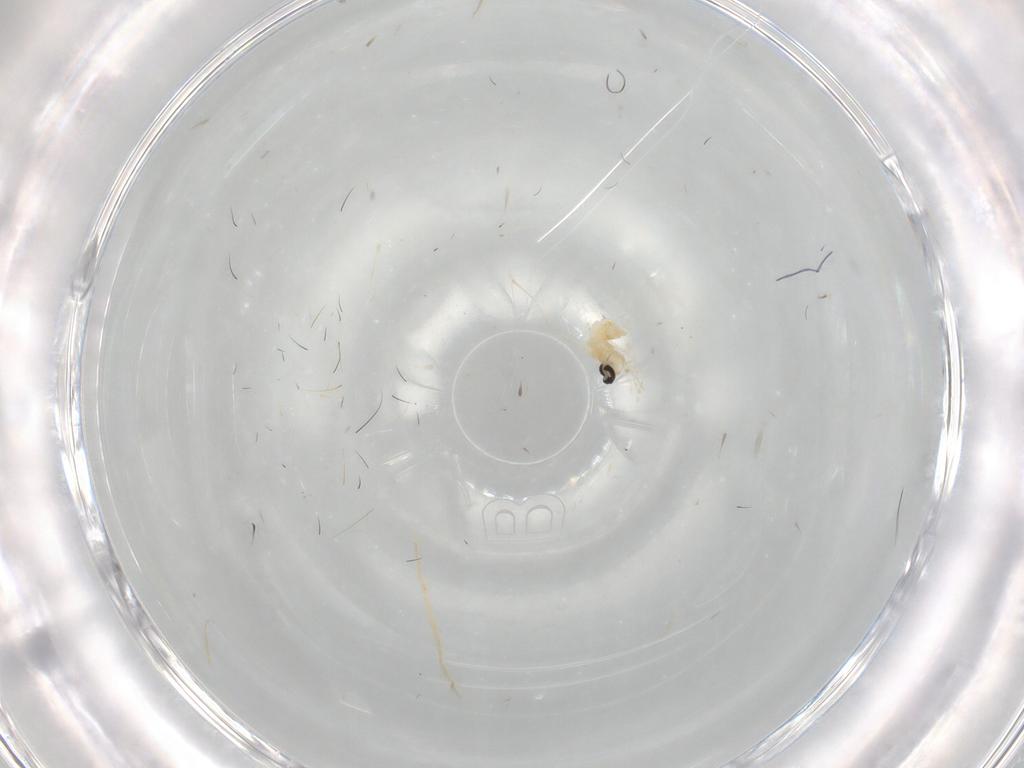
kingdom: Animalia
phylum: Arthropoda
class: Insecta
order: Diptera
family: Cecidomyiidae
